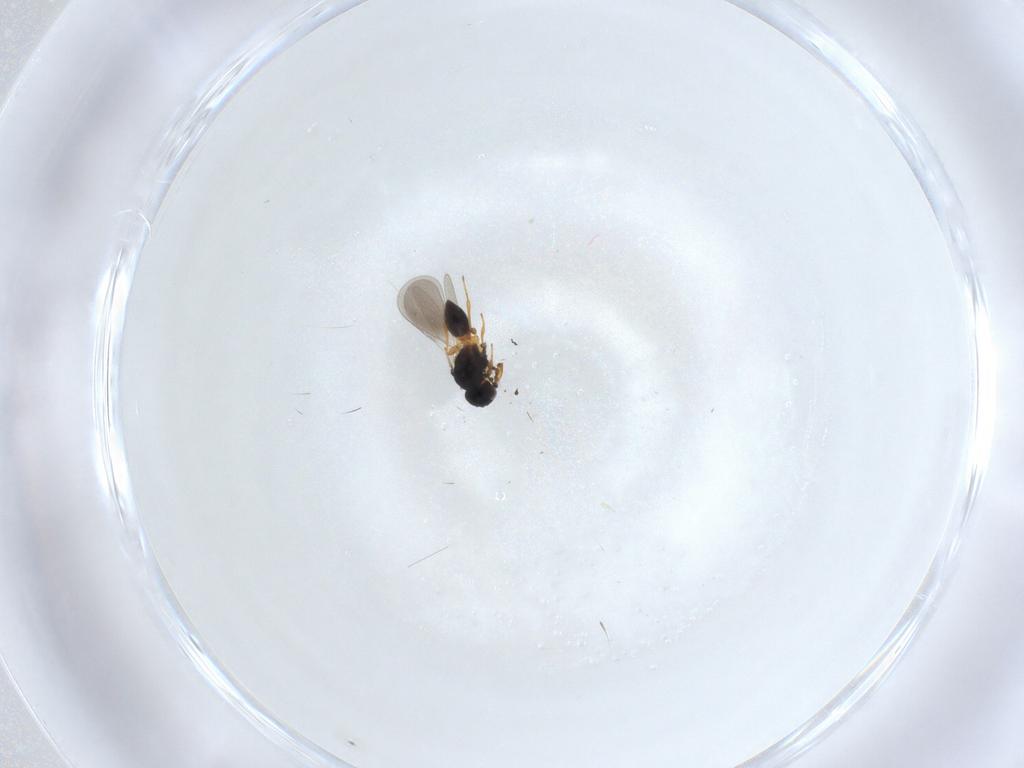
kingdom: Animalia
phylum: Arthropoda
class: Insecta
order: Hymenoptera
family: Platygastridae
